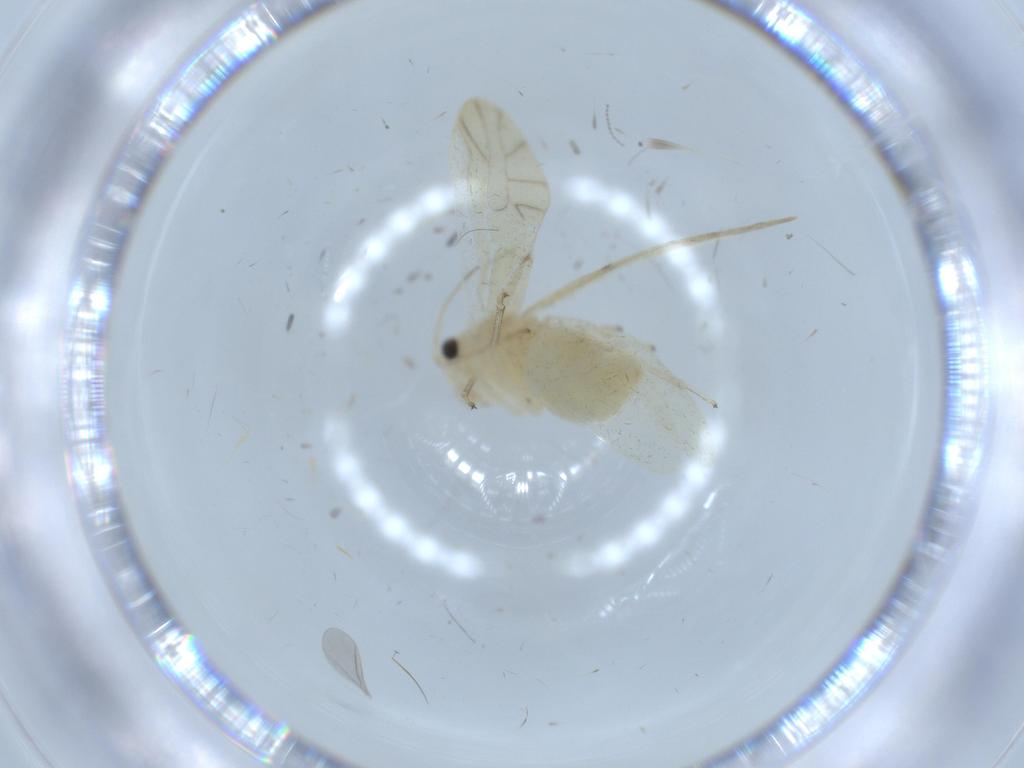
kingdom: Animalia
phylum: Arthropoda
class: Insecta
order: Psocodea
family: Caeciliusidae
